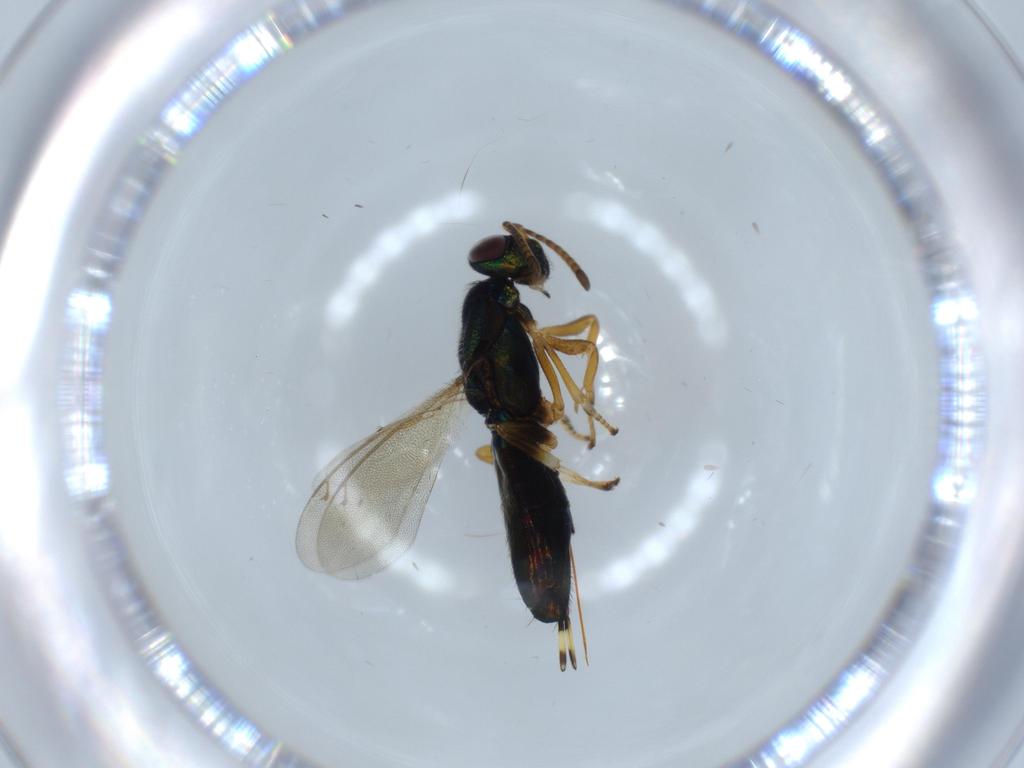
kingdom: Animalia
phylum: Arthropoda
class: Insecta
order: Hymenoptera
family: Eupelmidae
